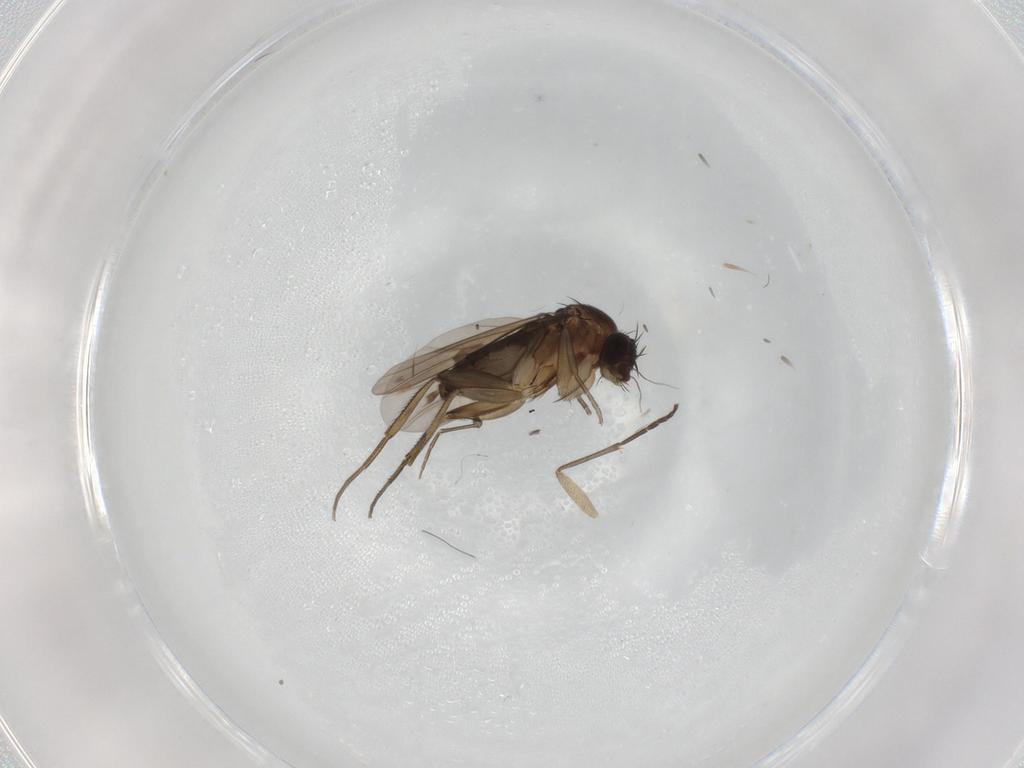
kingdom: Animalia
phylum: Arthropoda
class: Insecta
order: Diptera
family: Sciaridae
